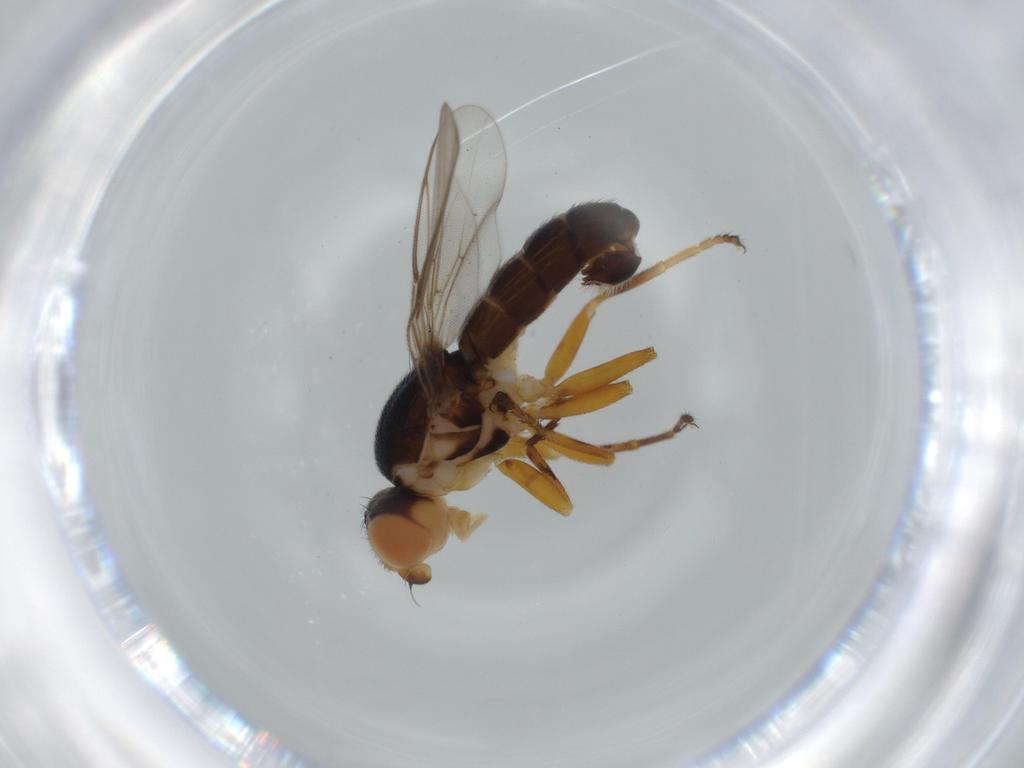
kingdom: Animalia
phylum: Arthropoda
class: Insecta
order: Diptera
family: Chloropidae
